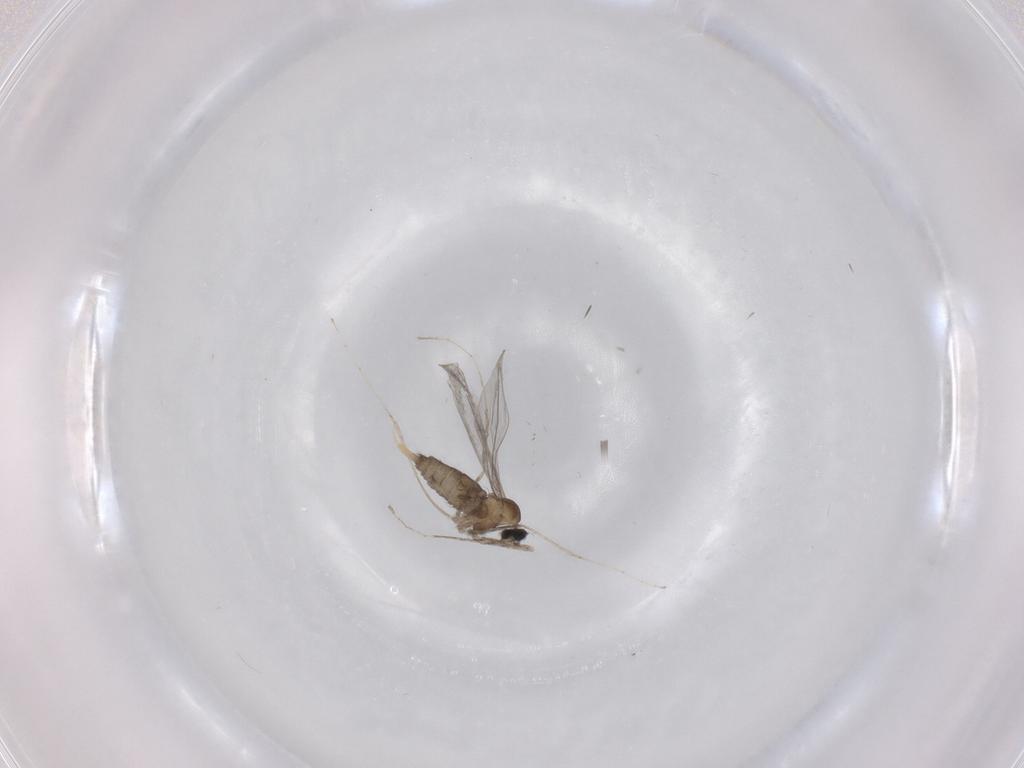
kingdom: Animalia
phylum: Arthropoda
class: Insecta
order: Diptera
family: Cecidomyiidae
